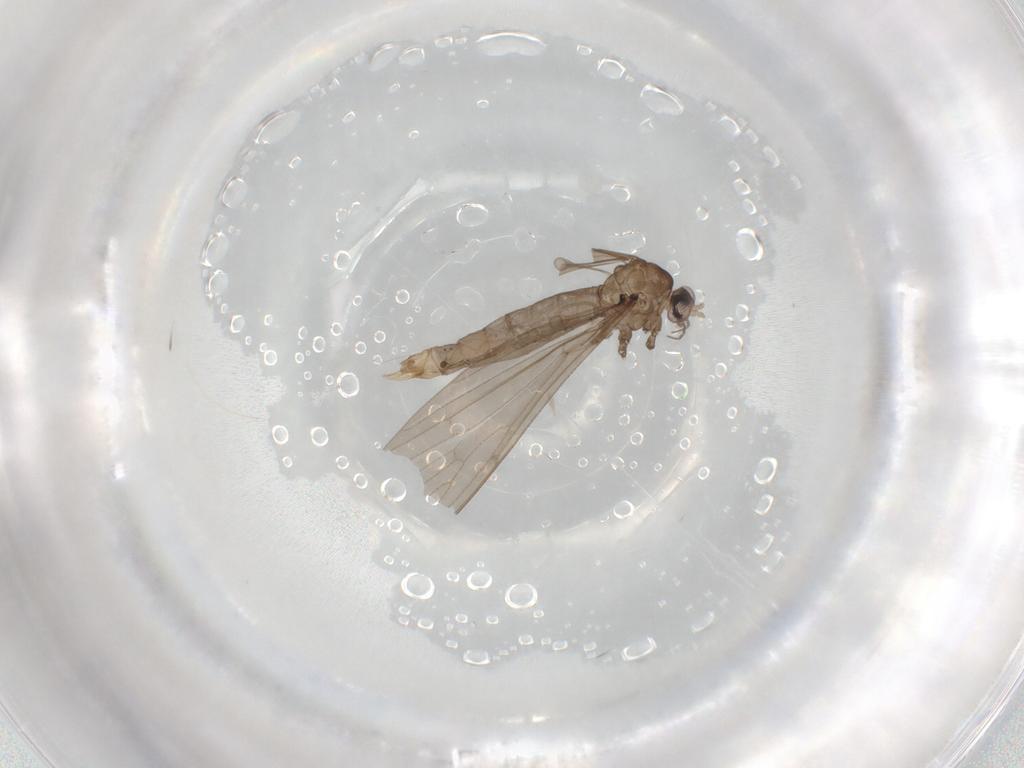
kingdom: Animalia
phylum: Arthropoda
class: Insecta
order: Diptera
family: Limoniidae
